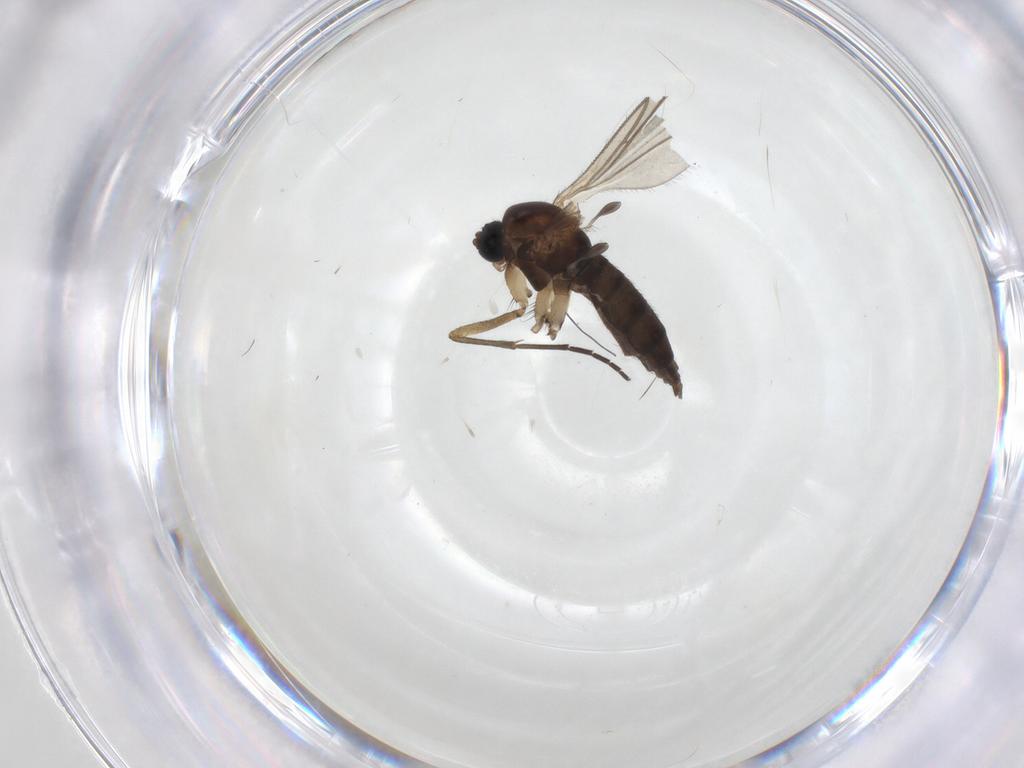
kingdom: Animalia
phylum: Arthropoda
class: Insecta
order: Diptera
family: Sciaridae
